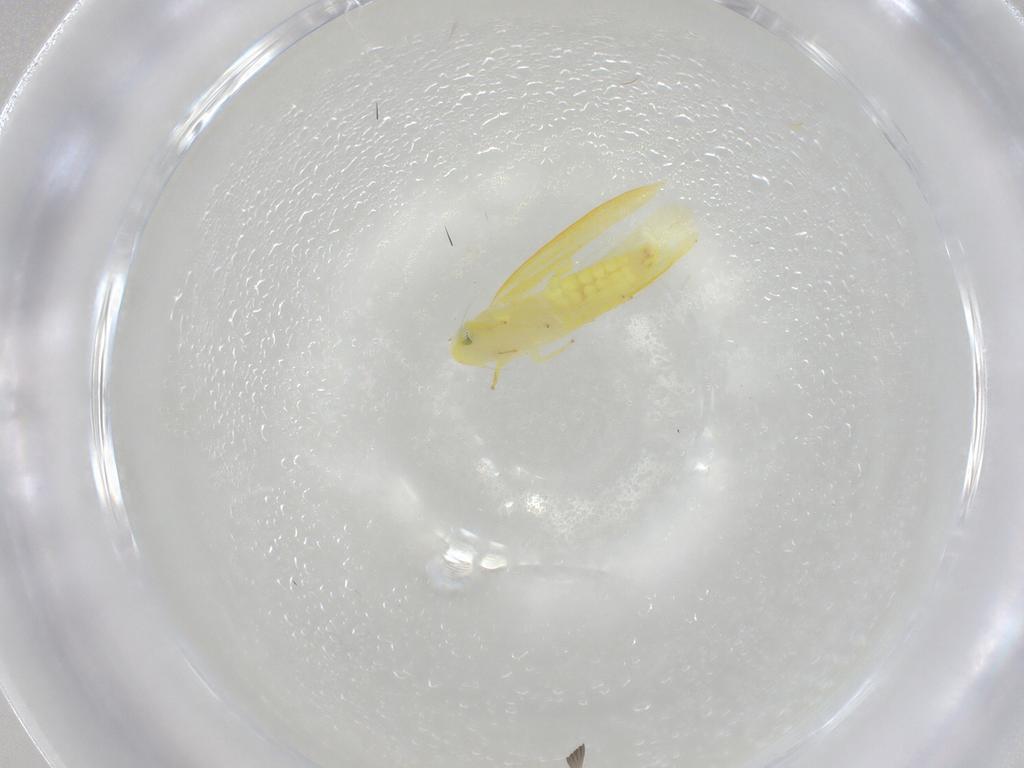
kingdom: Animalia
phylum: Arthropoda
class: Insecta
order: Hemiptera
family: Cicadellidae
